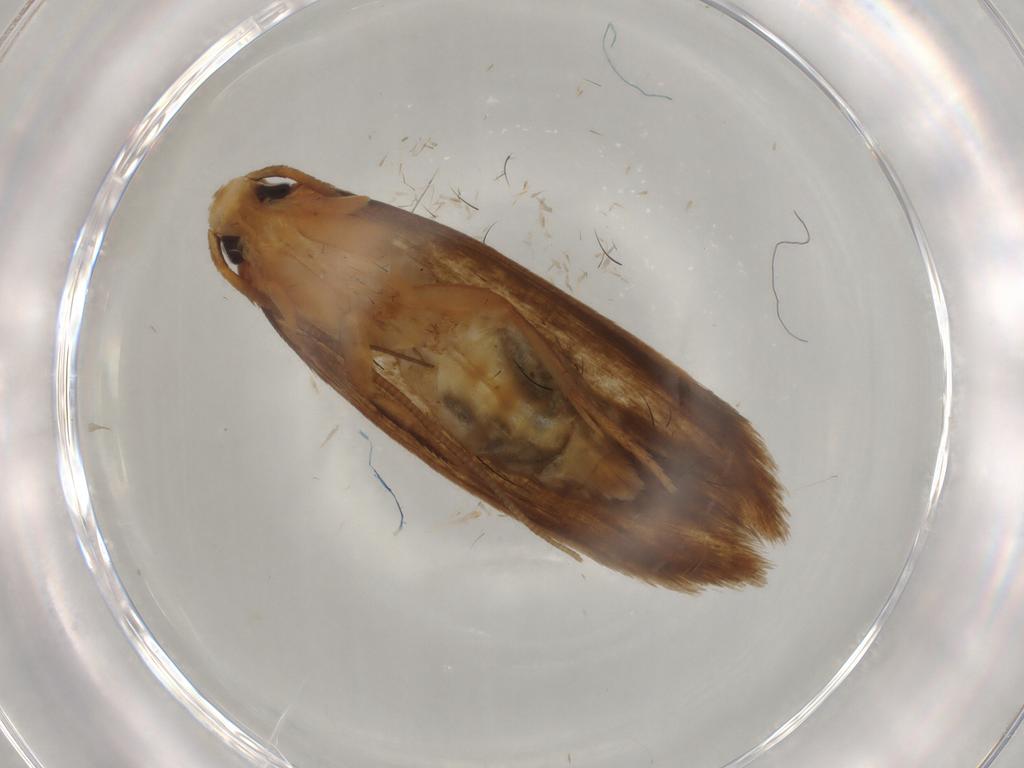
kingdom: Animalia
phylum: Arthropoda
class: Insecta
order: Lepidoptera
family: Tineidae
